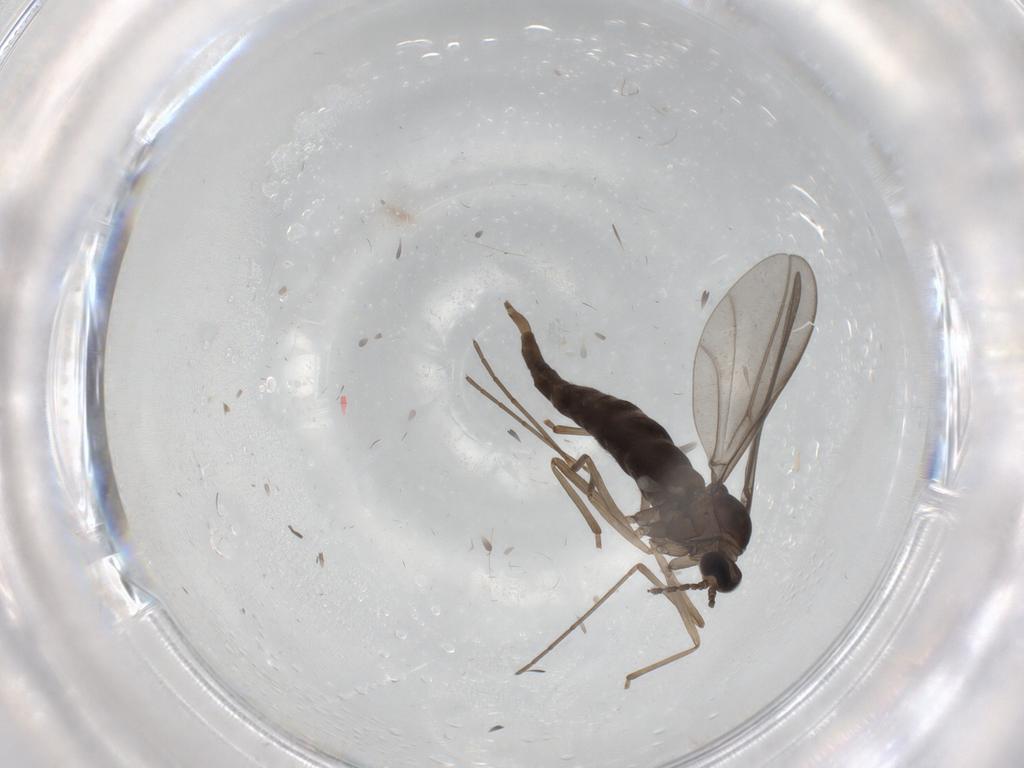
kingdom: Animalia
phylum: Arthropoda
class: Insecta
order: Diptera
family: Cecidomyiidae
